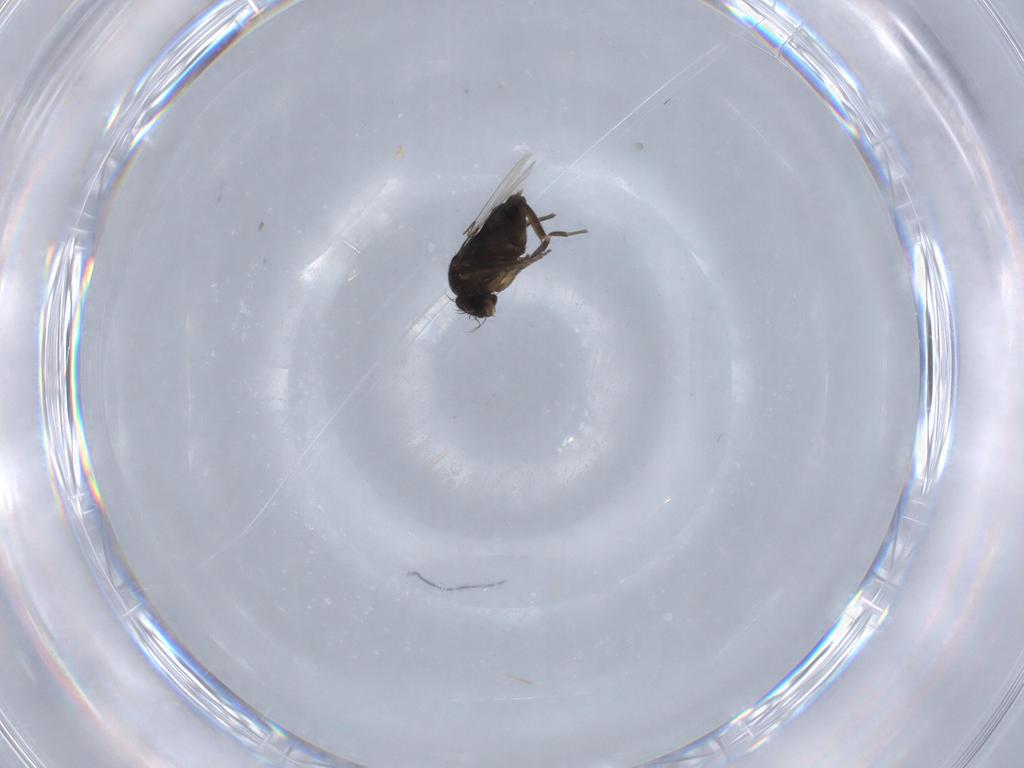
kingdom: Animalia
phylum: Arthropoda
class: Insecta
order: Diptera
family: Phoridae
